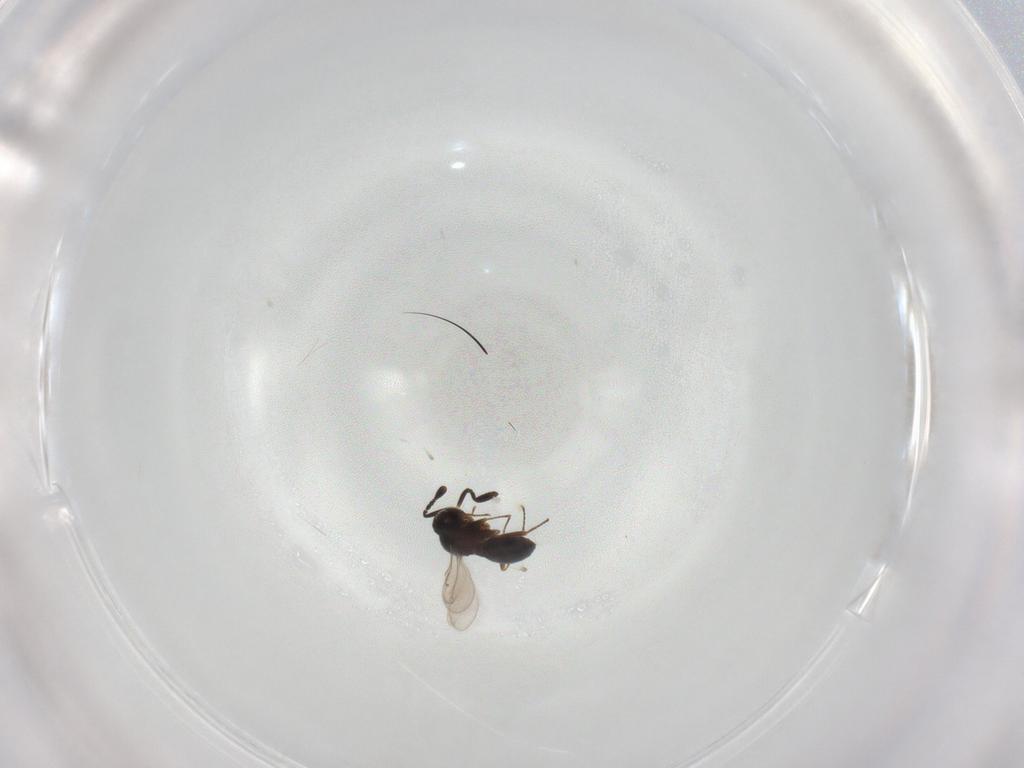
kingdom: Animalia
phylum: Arthropoda
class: Insecta
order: Hymenoptera
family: Scelionidae
